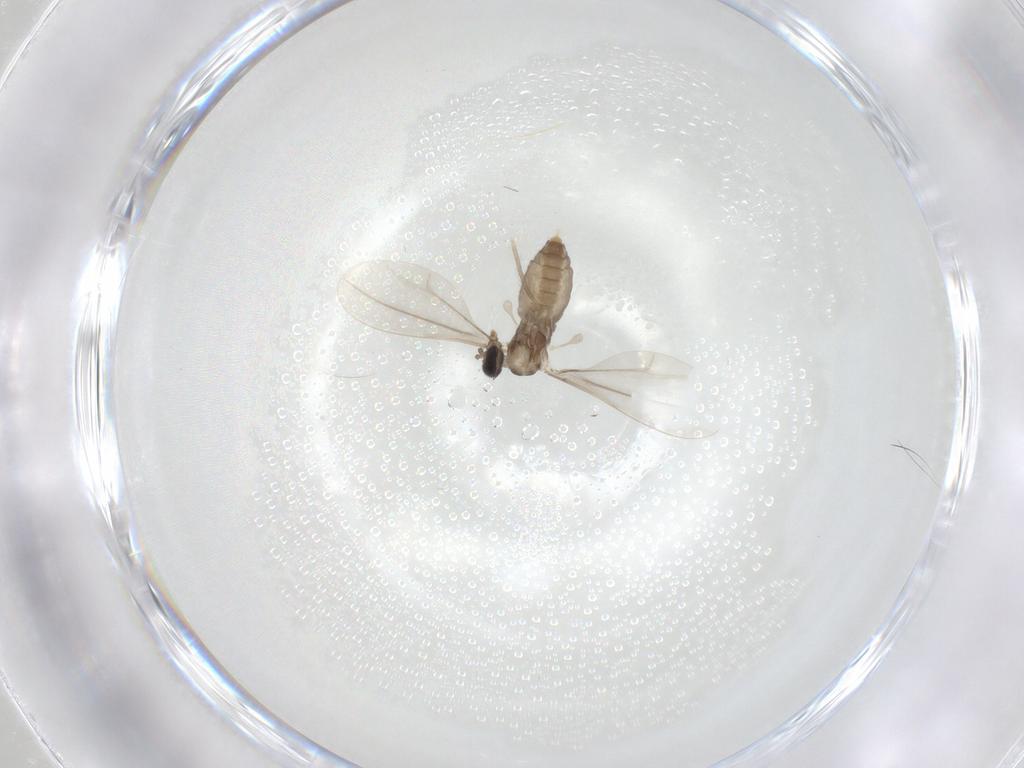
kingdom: Animalia
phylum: Arthropoda
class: Insecta
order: Diptera
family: Cecidomyiidae
